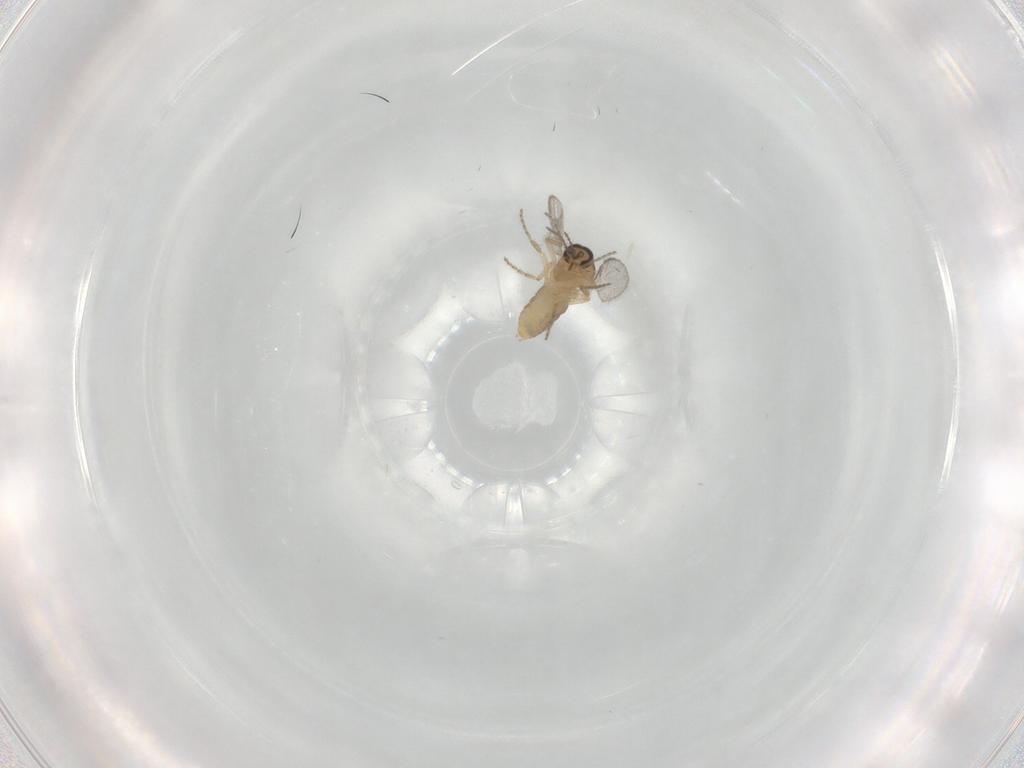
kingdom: Animalia
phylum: Arthropoda
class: Insecta
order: Diptera
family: Ceratopogonidae
